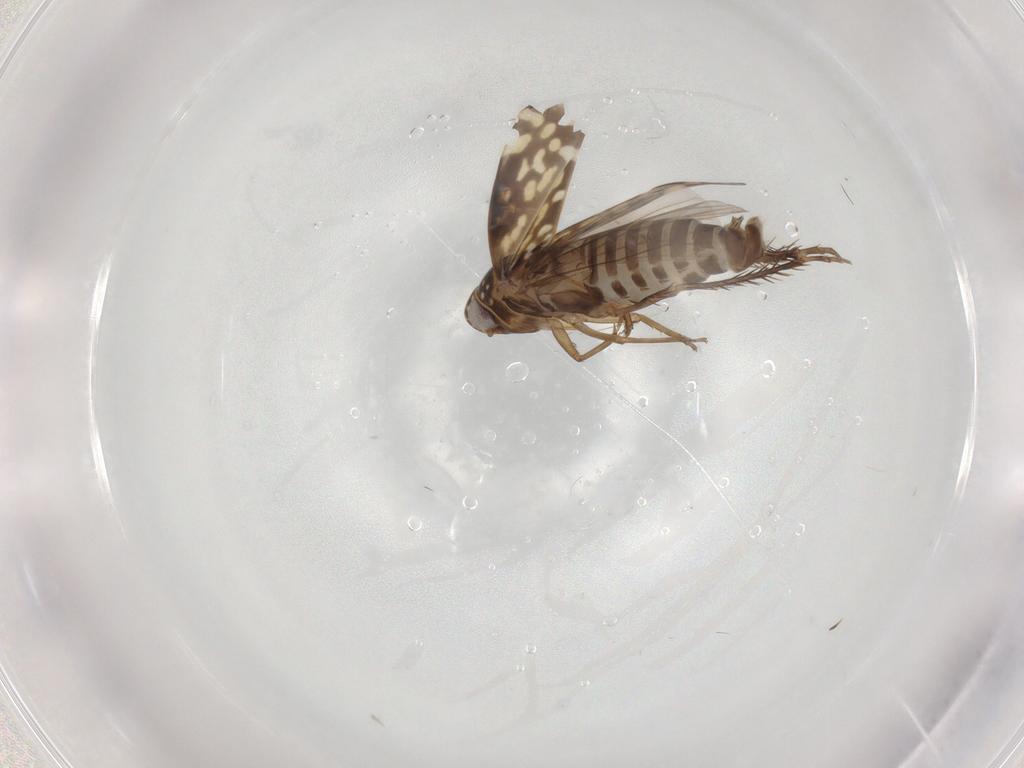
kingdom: Animalia
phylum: Arthropoda
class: Insecta
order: Hemiptera
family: Cicadellidae
